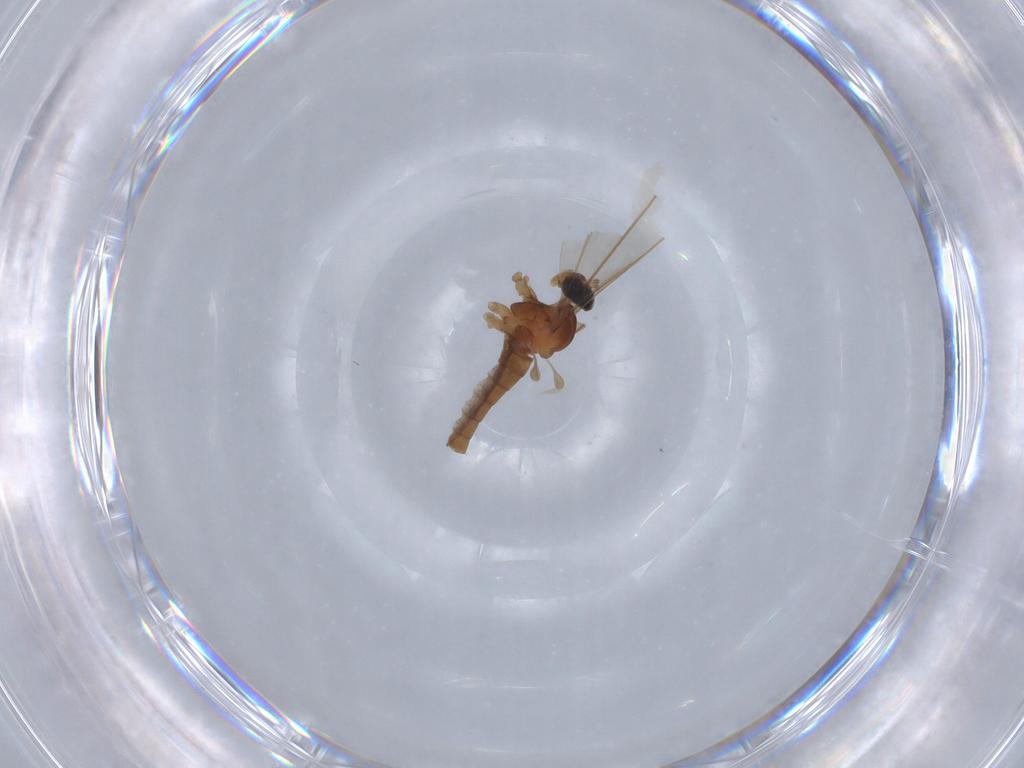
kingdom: Animalia
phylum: Arthropoda
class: Insecta
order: Diptera
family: Cecidomyiidae
